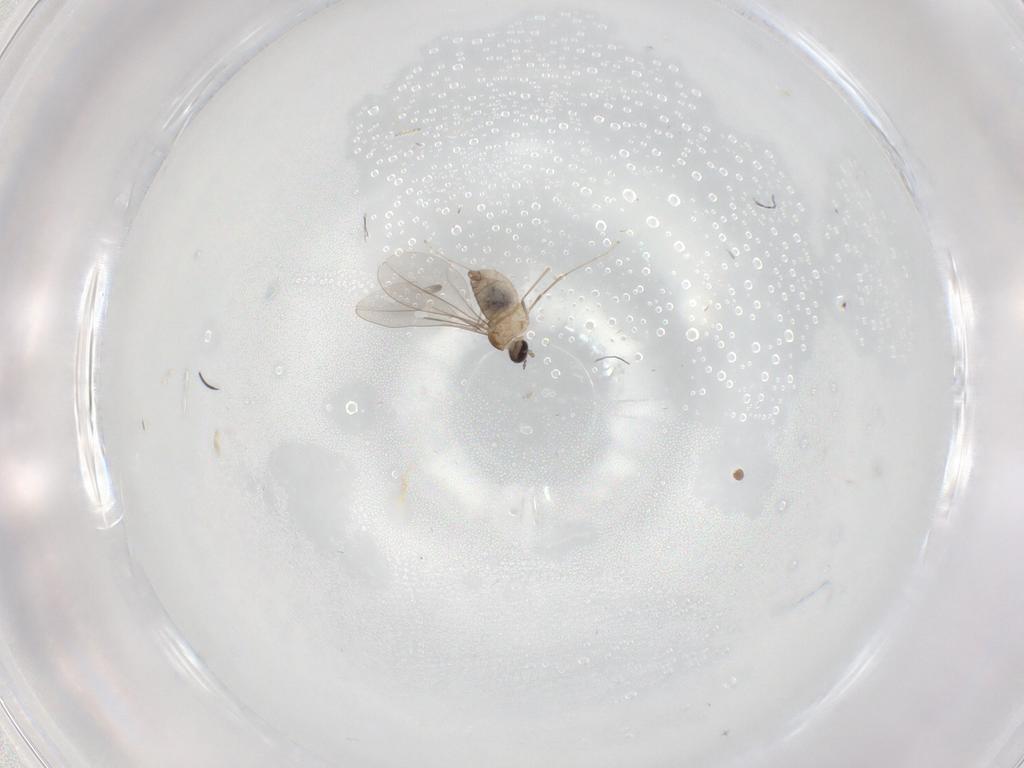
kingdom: Animalia
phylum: Arthropoda
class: Insecta
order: Diptera
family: Cecidomyiidae
